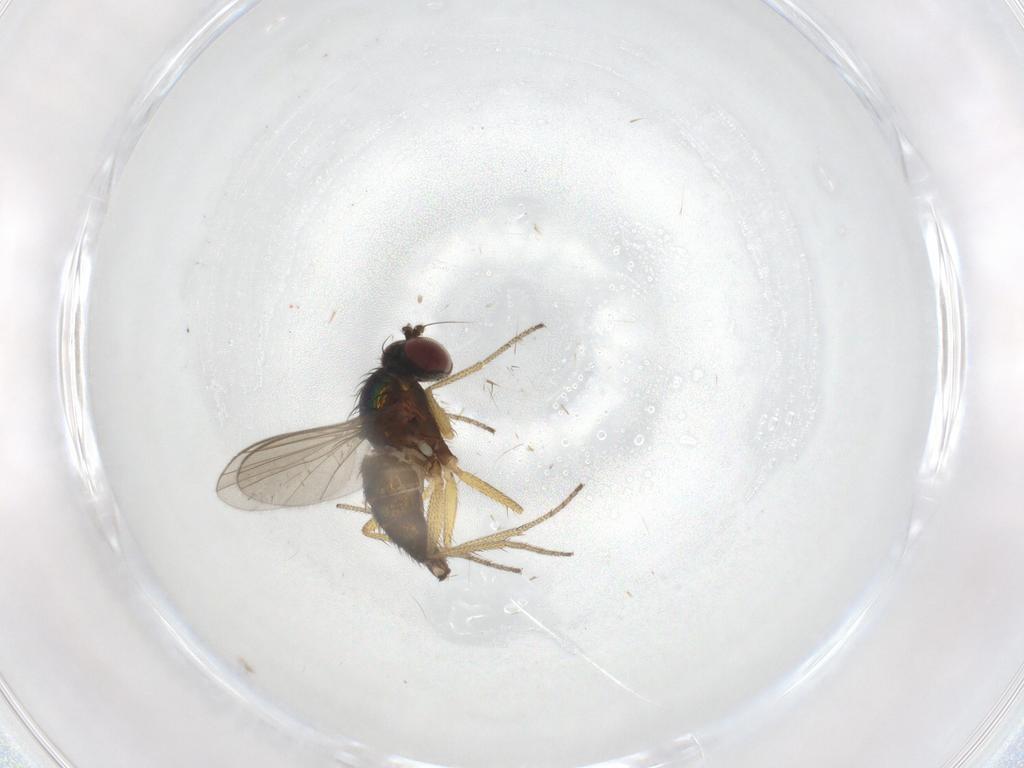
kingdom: Animalia
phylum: Arthropoda
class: Insecta
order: Diptera
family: Dolichopodidae
